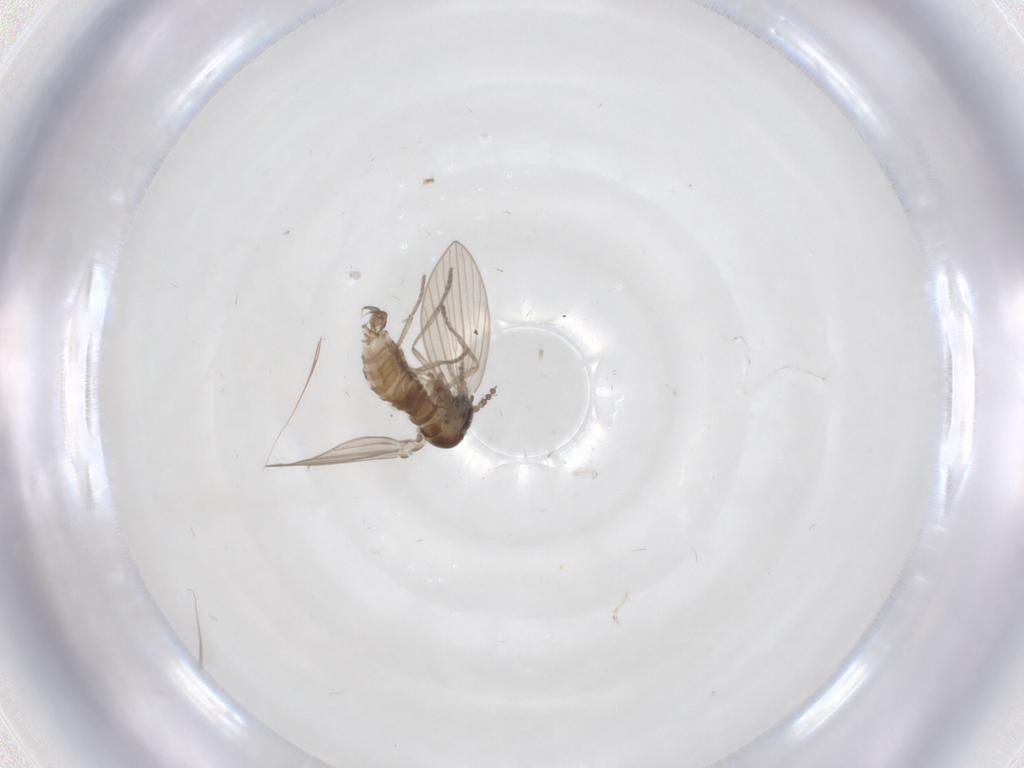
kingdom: Animalia
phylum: Arthropoda
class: Insecta
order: Diptera
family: Psychodidae
